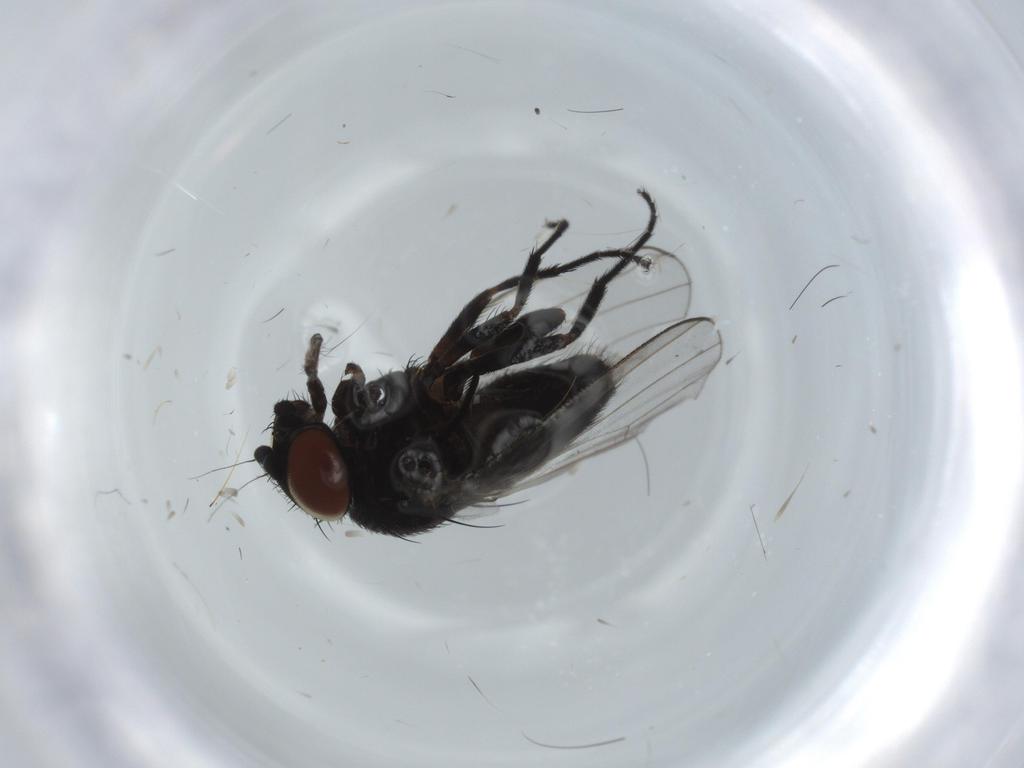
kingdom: Animalia
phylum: Arthropoda
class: Insecta
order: Diptera
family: Milichiidae
